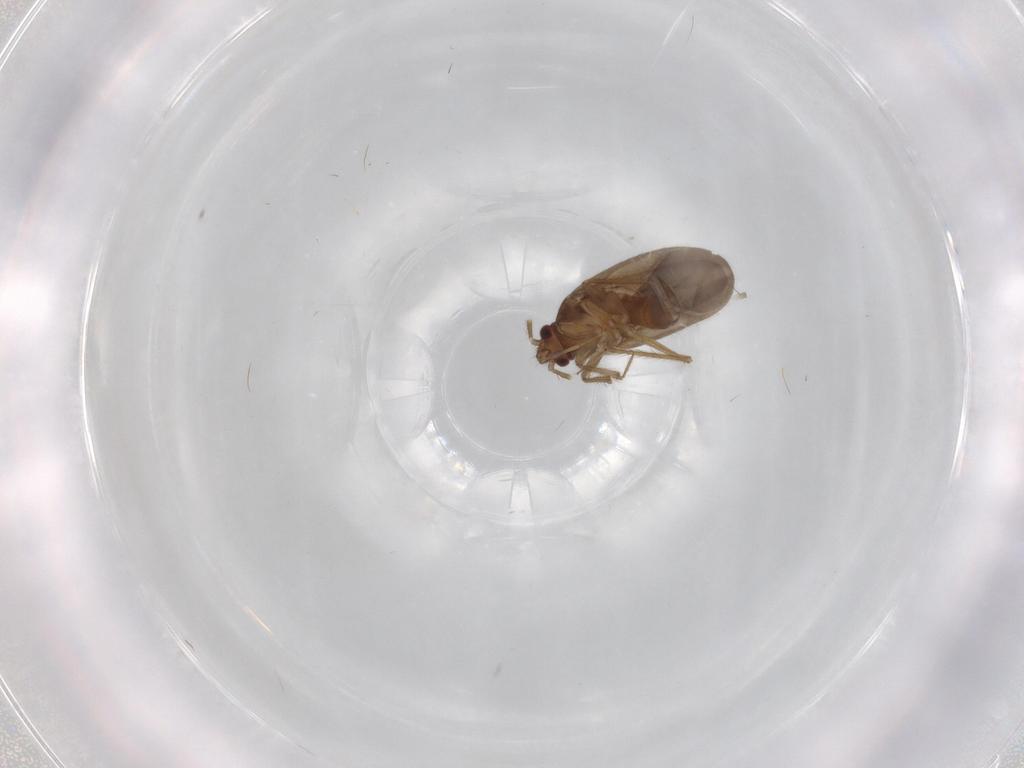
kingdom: Animalia
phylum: Arthropoda
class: Insecta
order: Hemiptera
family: Ceratocombidae
